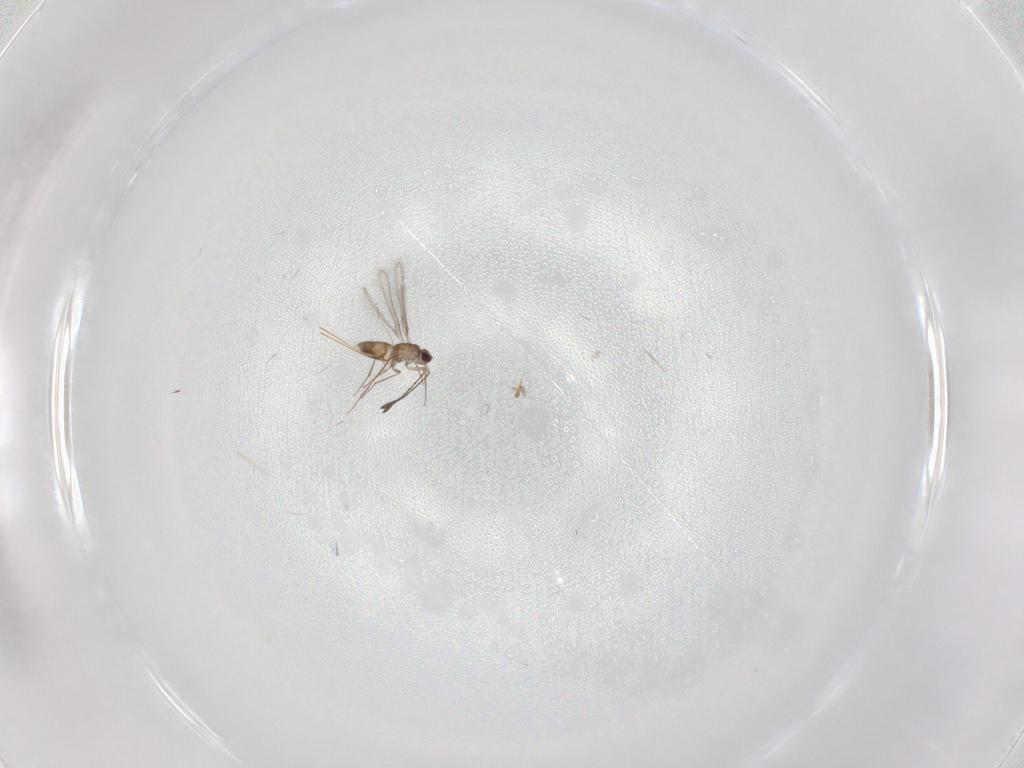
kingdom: Animalia
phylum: Arthropoda
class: Insecta
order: Hymenoptera
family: Mymaridae
